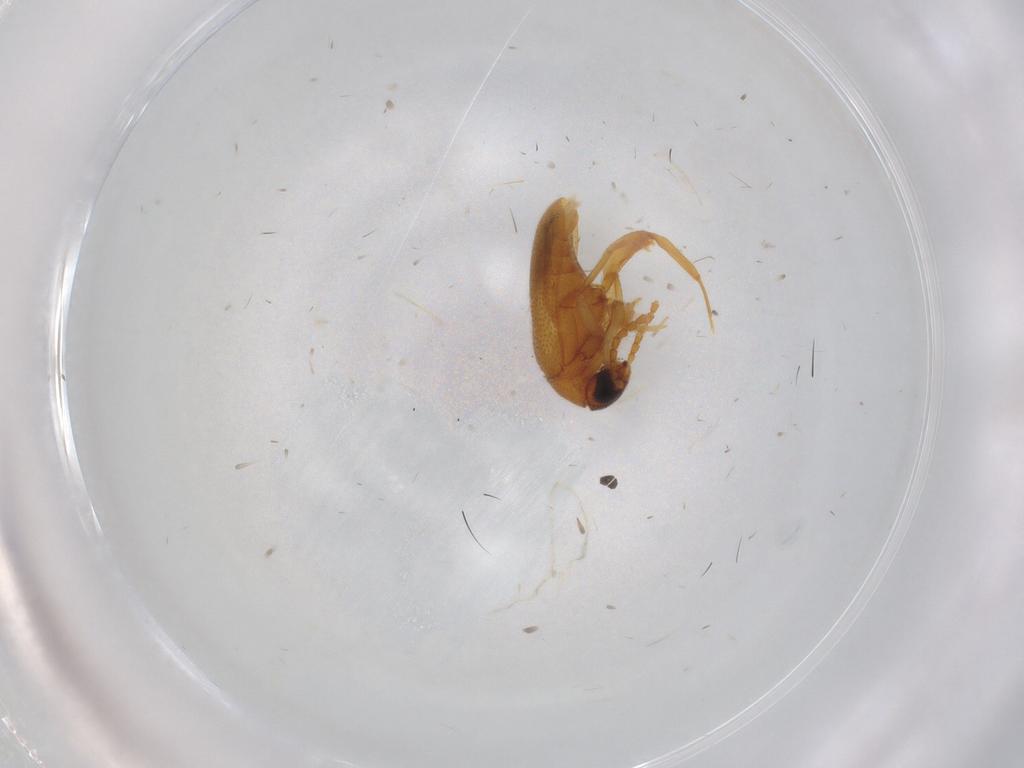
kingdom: Animalia
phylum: Arthropoda
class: Insecta
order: Coleoptera
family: Aderidae
